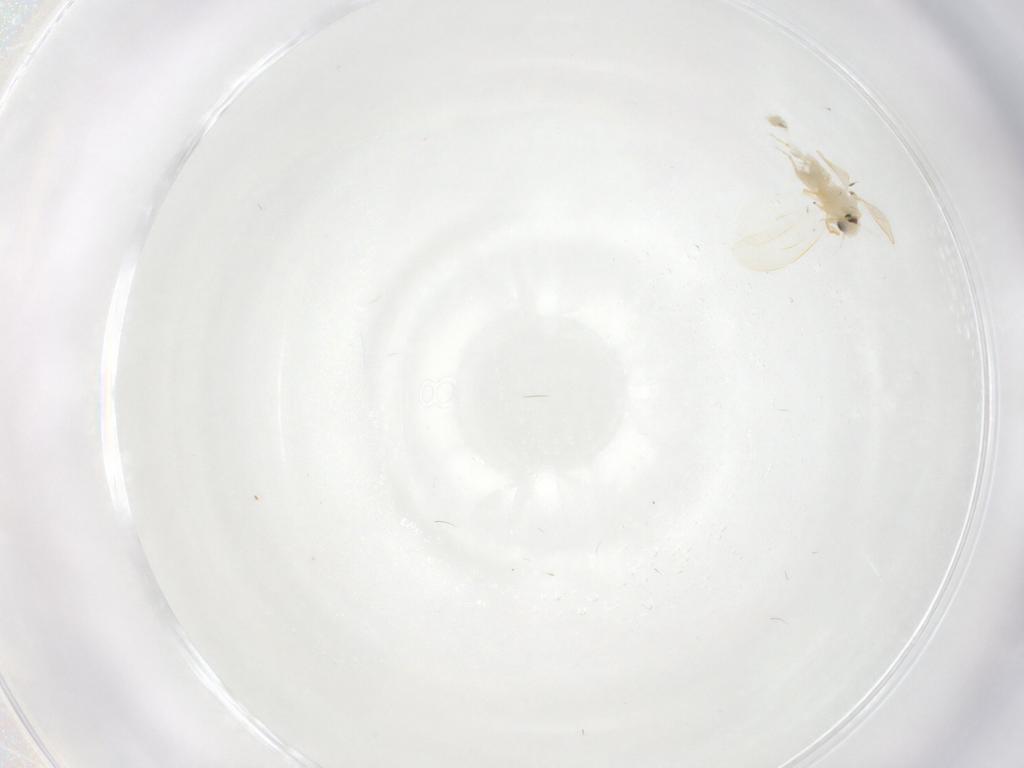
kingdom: Animalia
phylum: Arthropoda
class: Insecta
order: Hemiptera
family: Aleyrodidae
